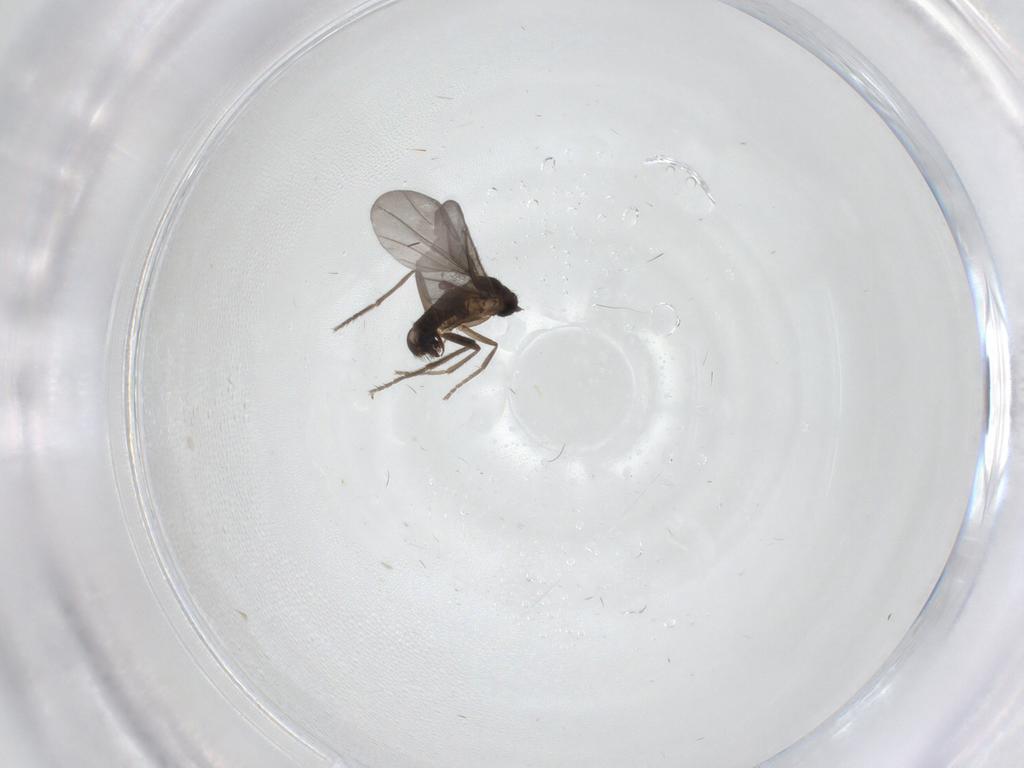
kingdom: Animalia
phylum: Arthropoda
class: Insecta
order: Diptera
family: Phoridae
